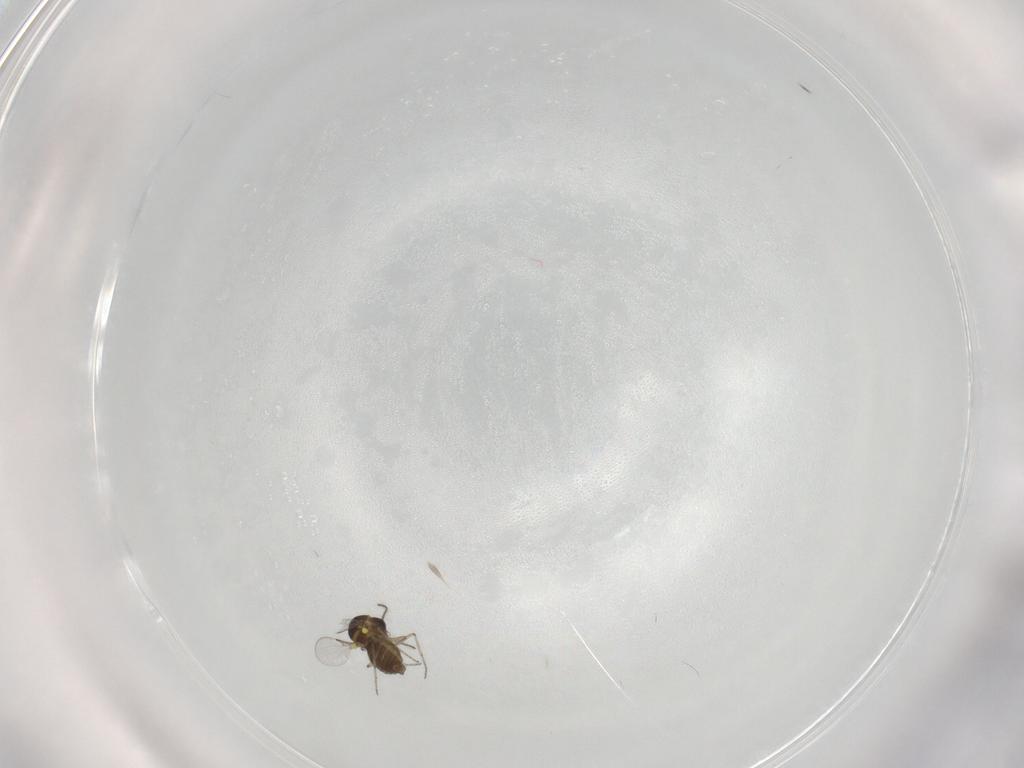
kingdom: Animalia
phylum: Arthropoda
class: Insecta
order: Diptera
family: Ceratopogonidae
